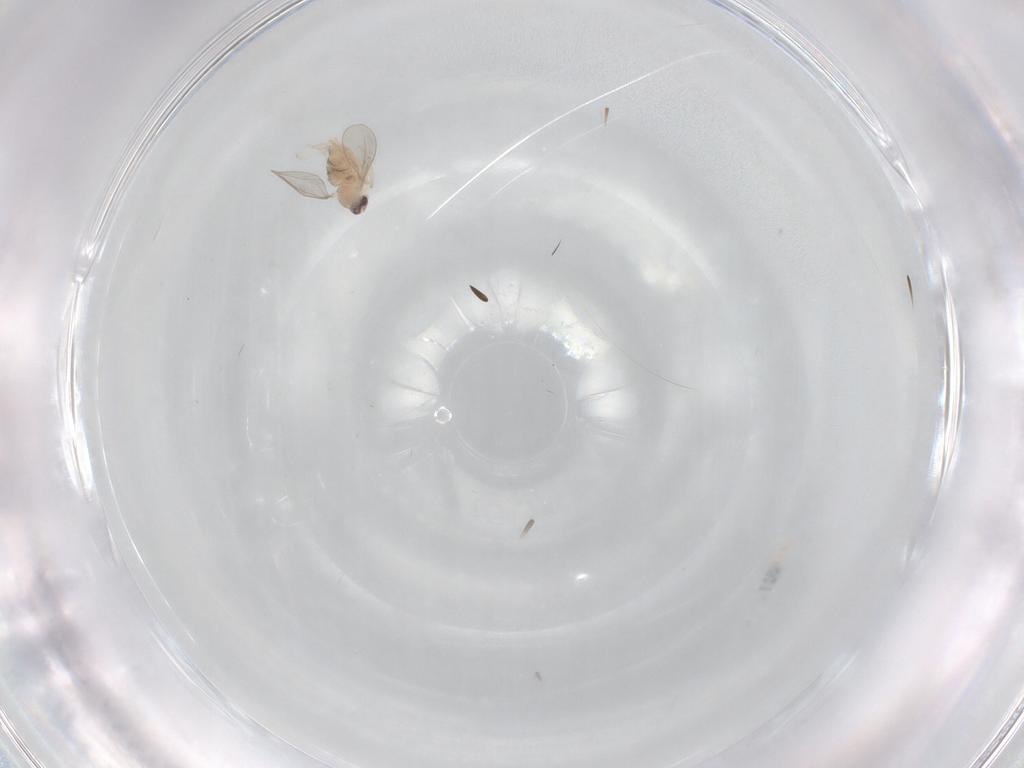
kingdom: Animalia
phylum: Arthropoda
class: Insecta
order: Diptera
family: Cecidomyiidae
